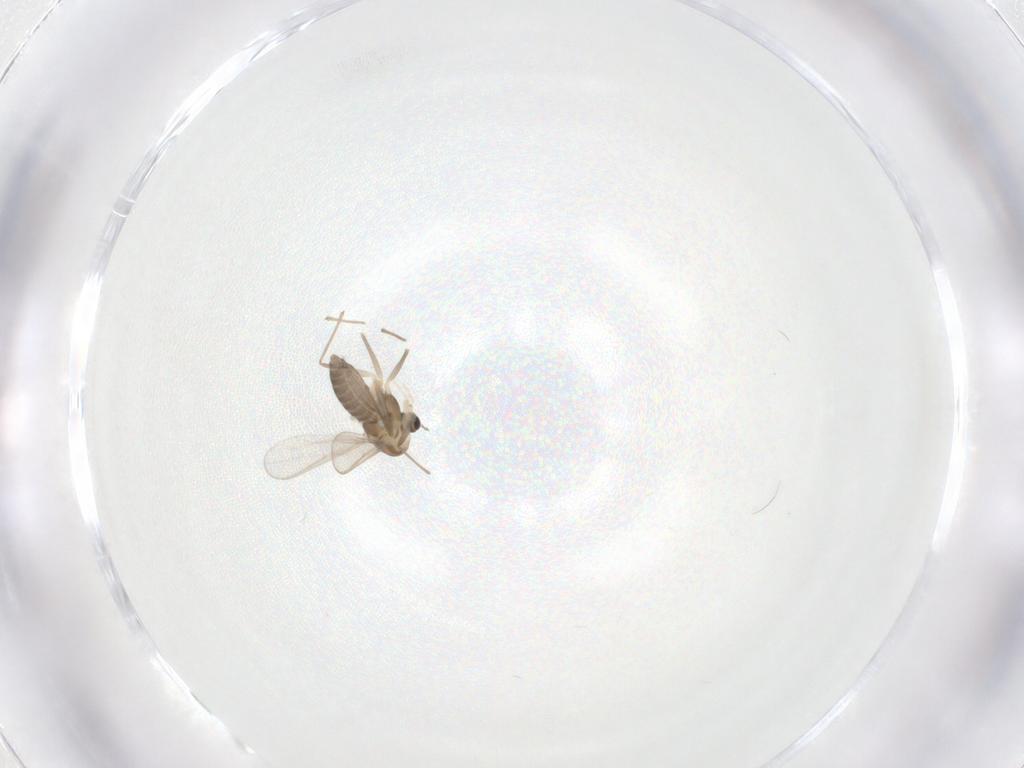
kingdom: Animalia
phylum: Arthropoda
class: Insecta
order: Diptera
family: Chironomidae
